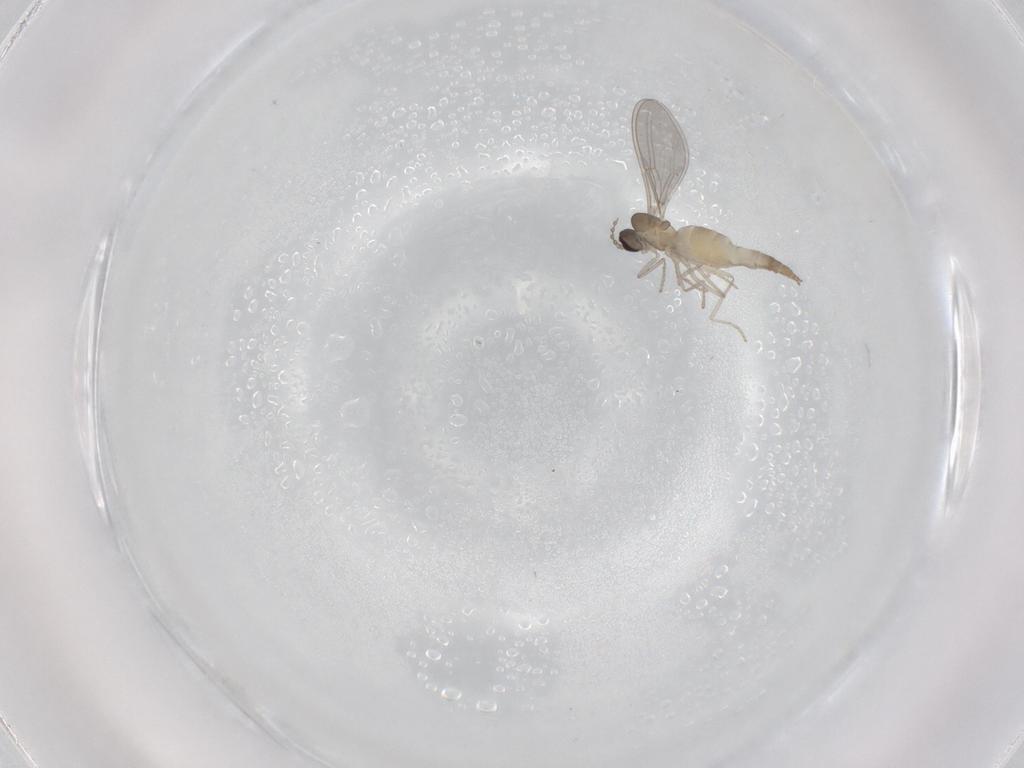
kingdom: Animalia
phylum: Arthropoda
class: Insecta
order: Diptera
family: Cecidomyiidae
